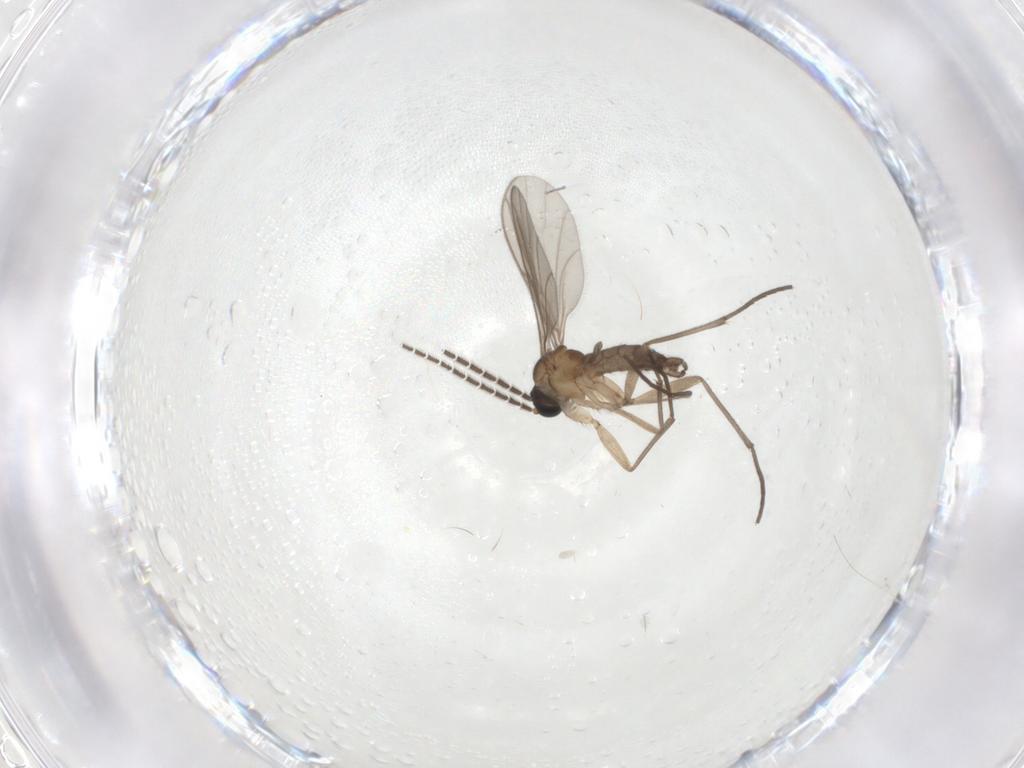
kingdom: Animalia
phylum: Arthropoda
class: Insecta
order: Diptera
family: Sciaridae
